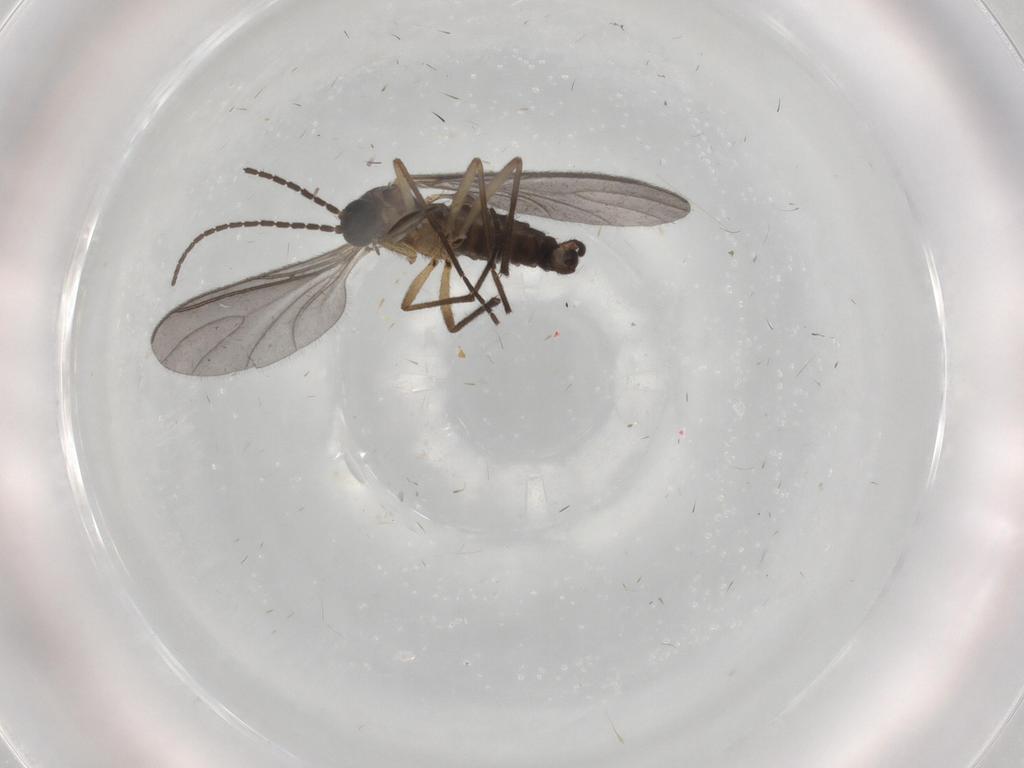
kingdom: Animalia
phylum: Arthropoda
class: Insecta
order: Diptera
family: Sciaridae
